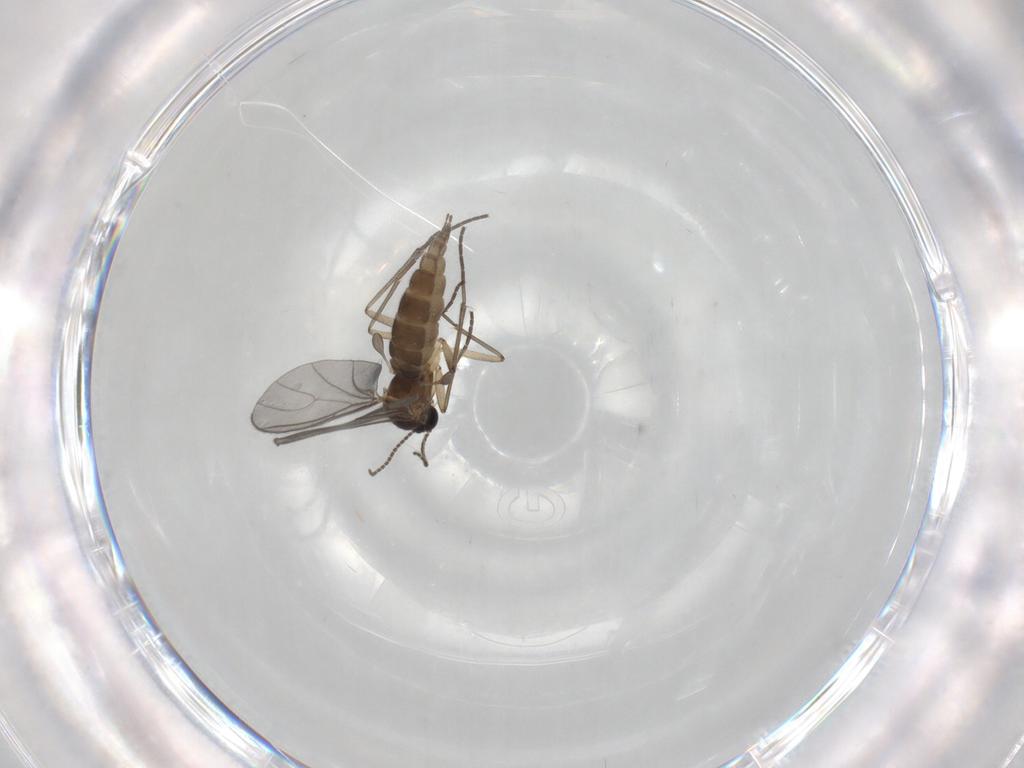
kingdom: Animalia
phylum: Arthropoda
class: Insecta
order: Diptera
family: Sciaridae
